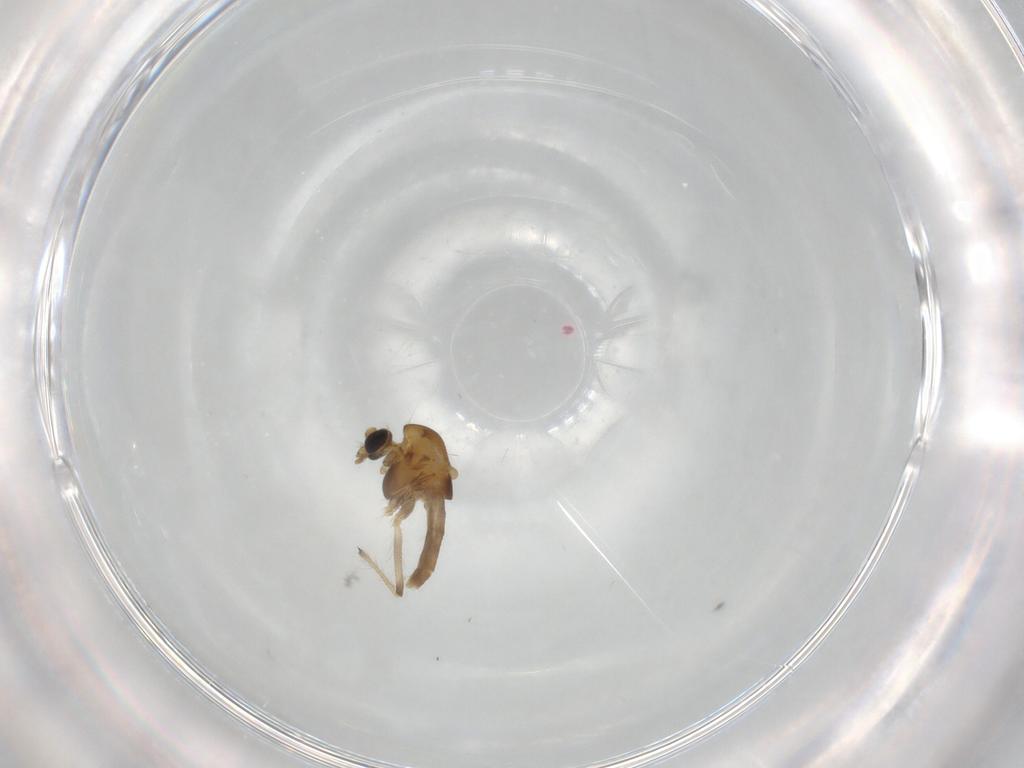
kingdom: Animalia
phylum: Arthropoda
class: Insecta
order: Diptera
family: Chironomidae
